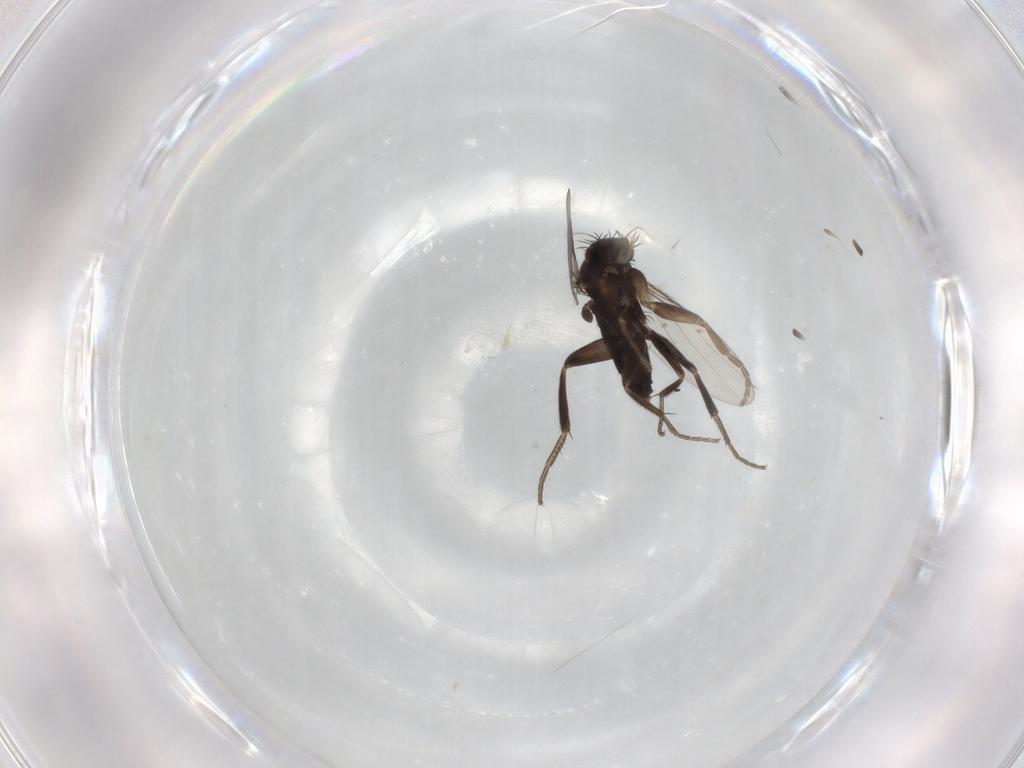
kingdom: Animalia
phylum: Arthropoda
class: Insecta
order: Diptera
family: Phoridae
